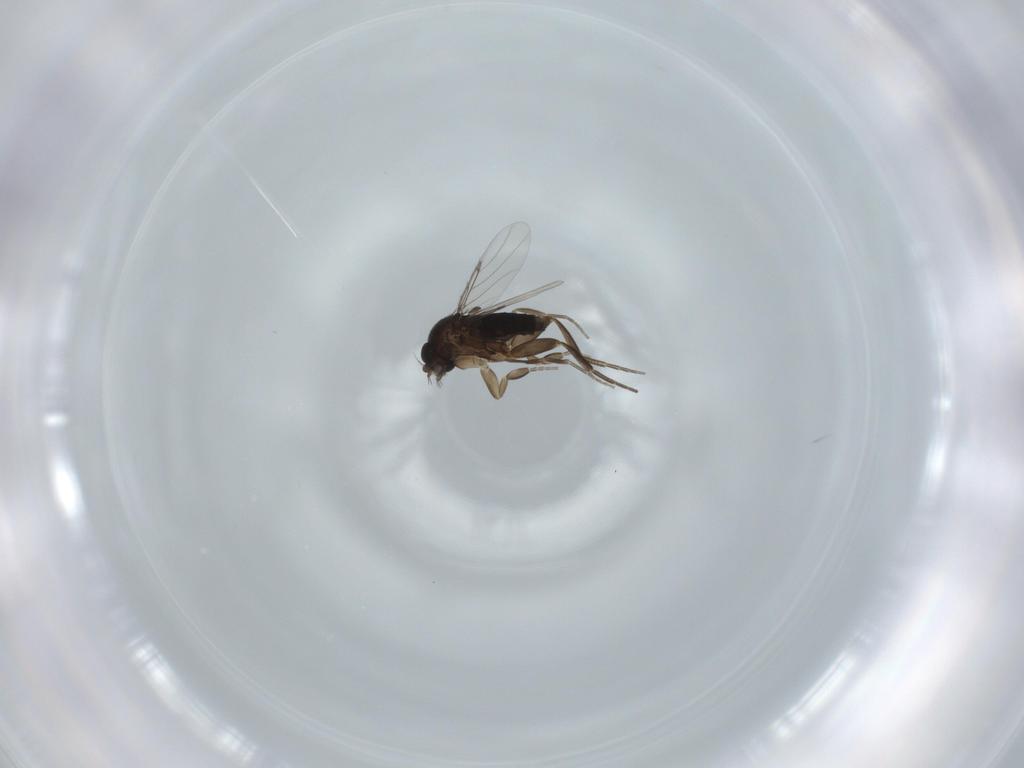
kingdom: Animalia
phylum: Arthropoda
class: Insecta
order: Diptera
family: Phoridae
